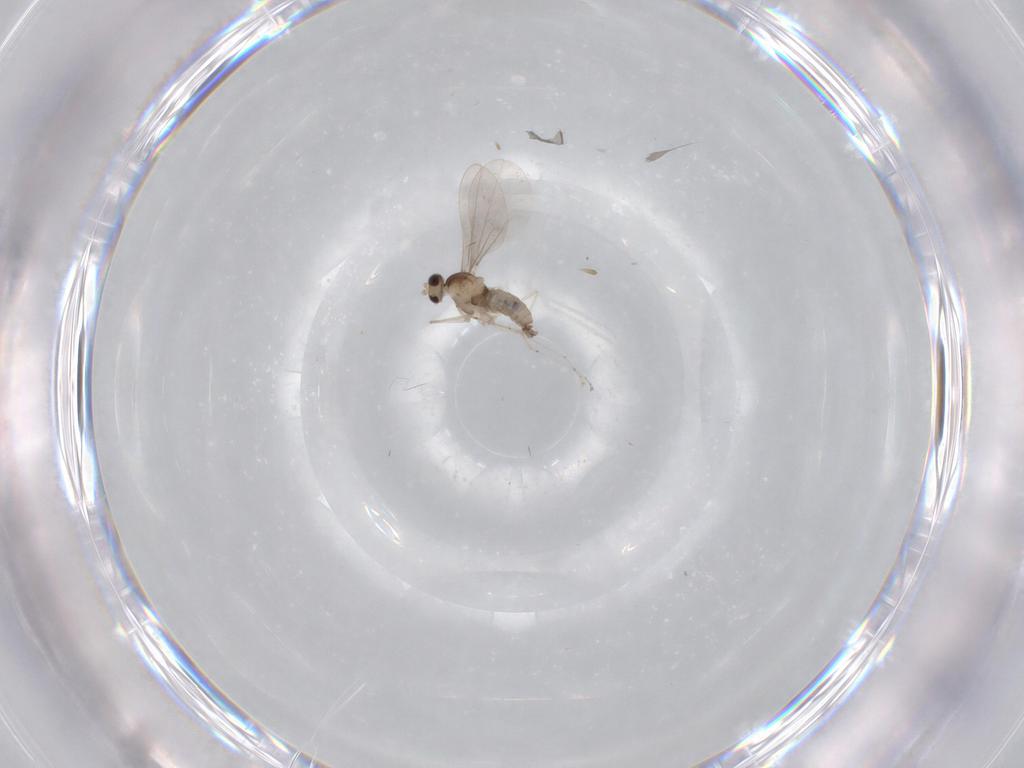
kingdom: Animalia
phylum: Arthropoda
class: Insecta
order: Diptera
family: Cecidomyiidae
